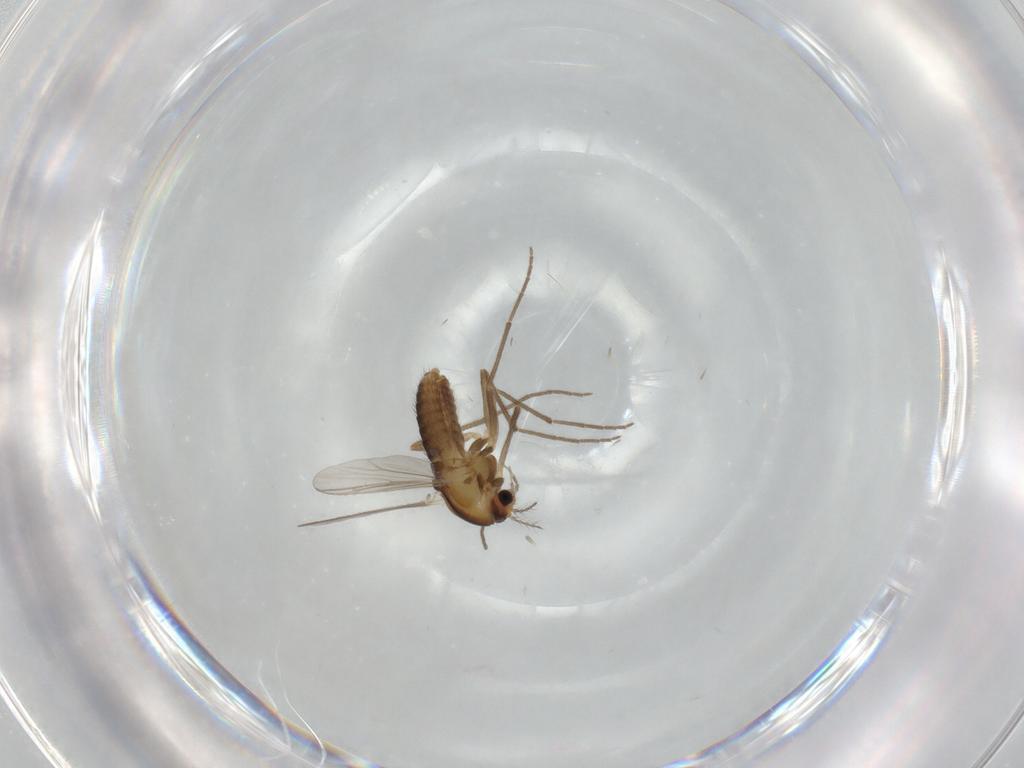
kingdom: Animalia
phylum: Arthropoda
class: Insecta
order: Diptera
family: Chironomidae
